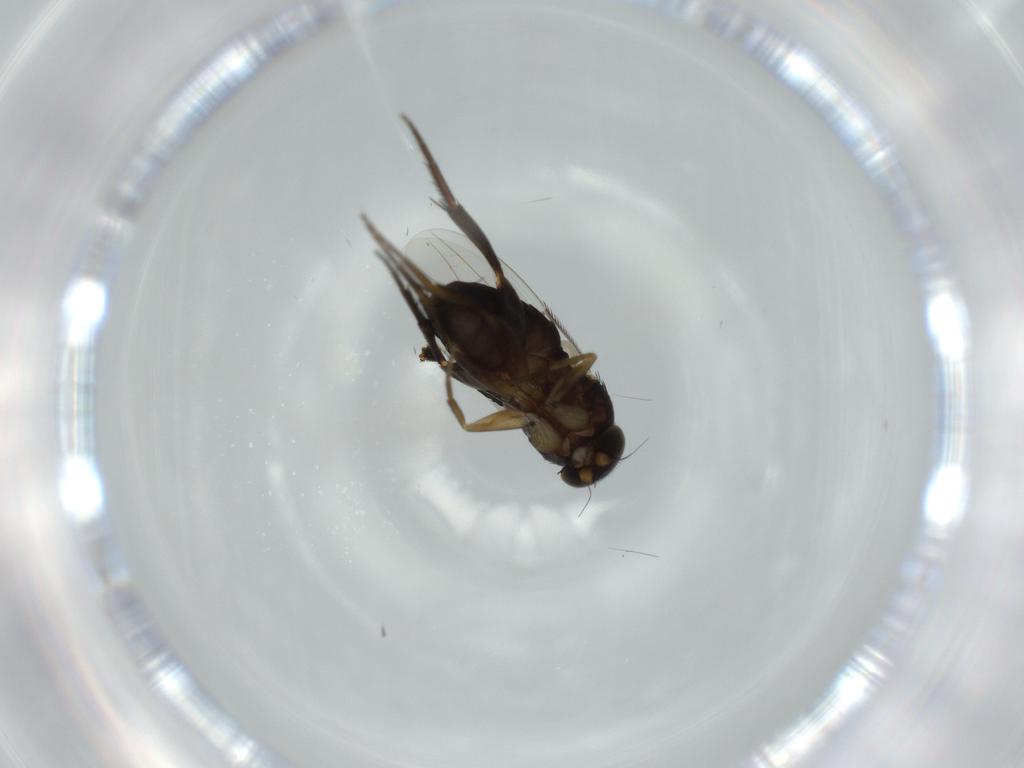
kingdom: Animalia
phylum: Arthropoda
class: Insecta
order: Diptera
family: Phoridae
